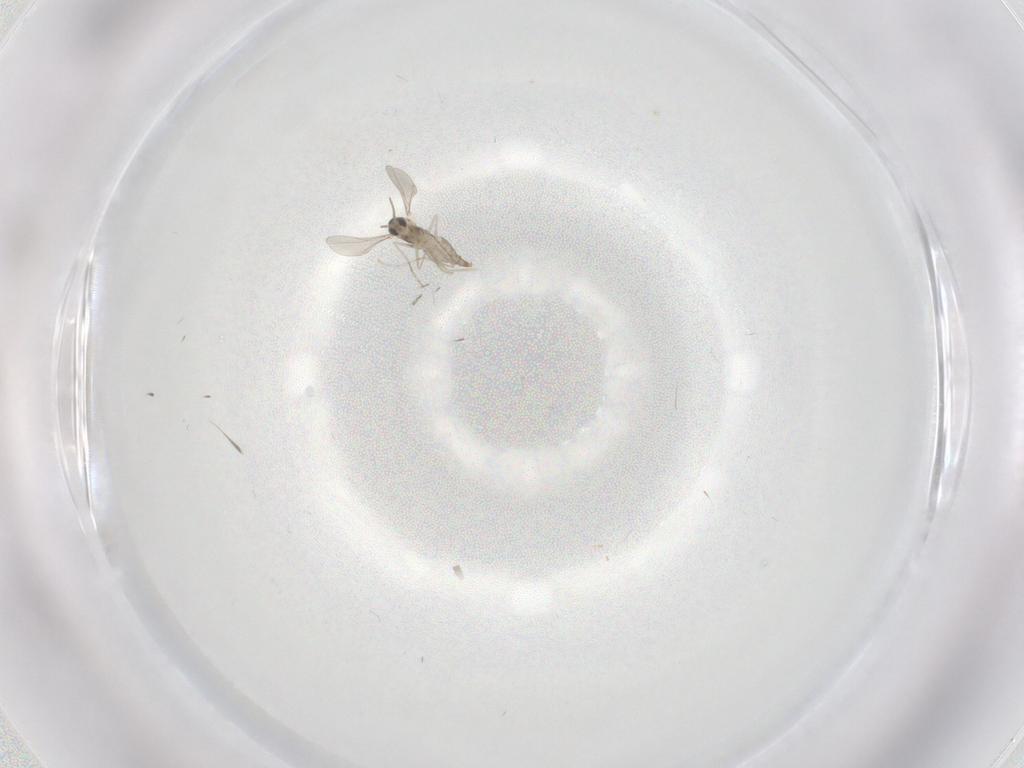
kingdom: Animalia
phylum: Arthropoda
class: Insecta
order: Diptera
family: Cecidomyiidae
